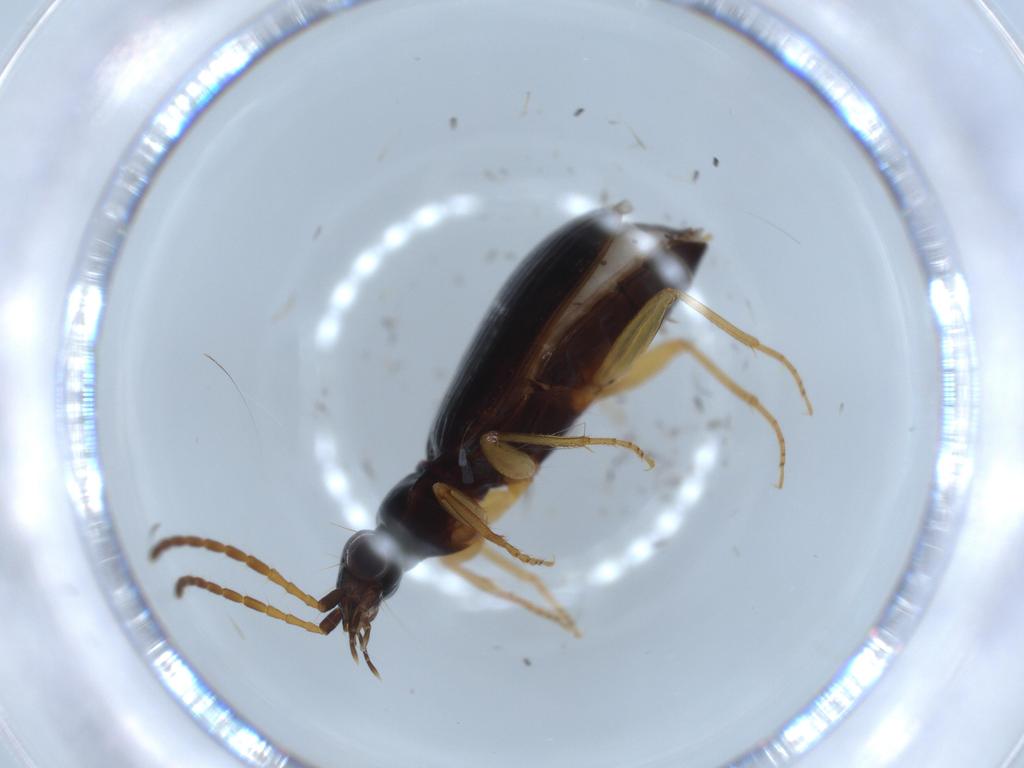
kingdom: Animalia
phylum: Arthropoda
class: Insecta
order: Coleoptera
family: Carabidae
